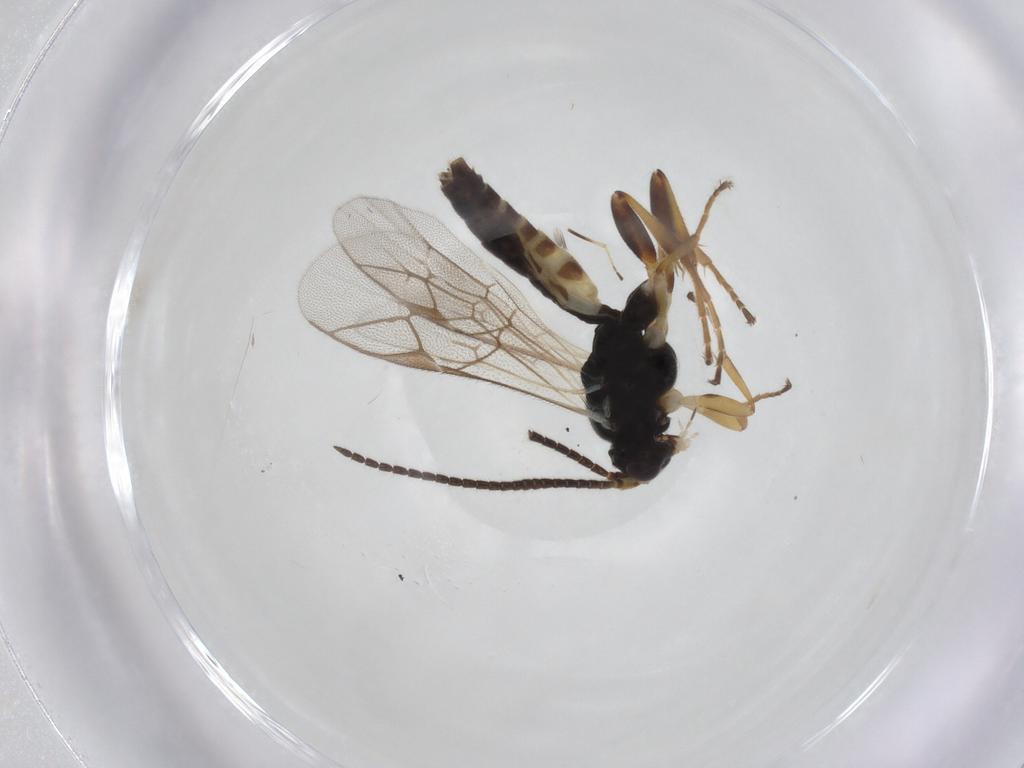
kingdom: Animalia
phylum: Arthropoda
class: Insecta
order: Hymenoptera
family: Ichneumonidae
